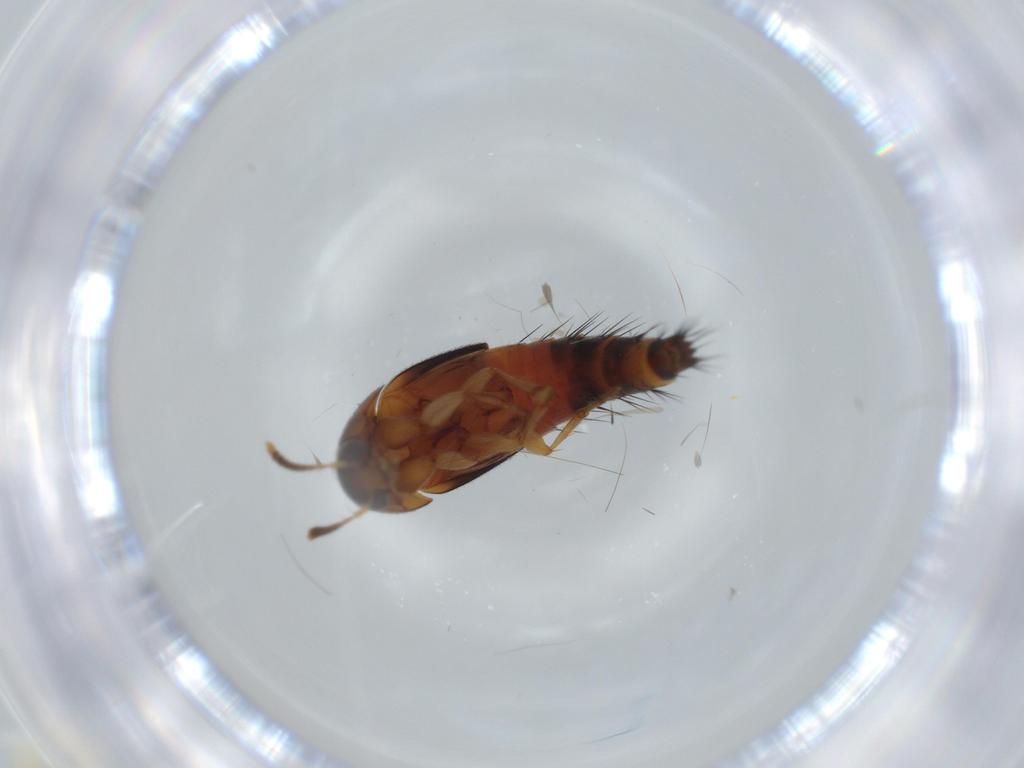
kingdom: Animalia
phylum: Arthropoda
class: Insecta
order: Coleoptera
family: Staphylinidae
